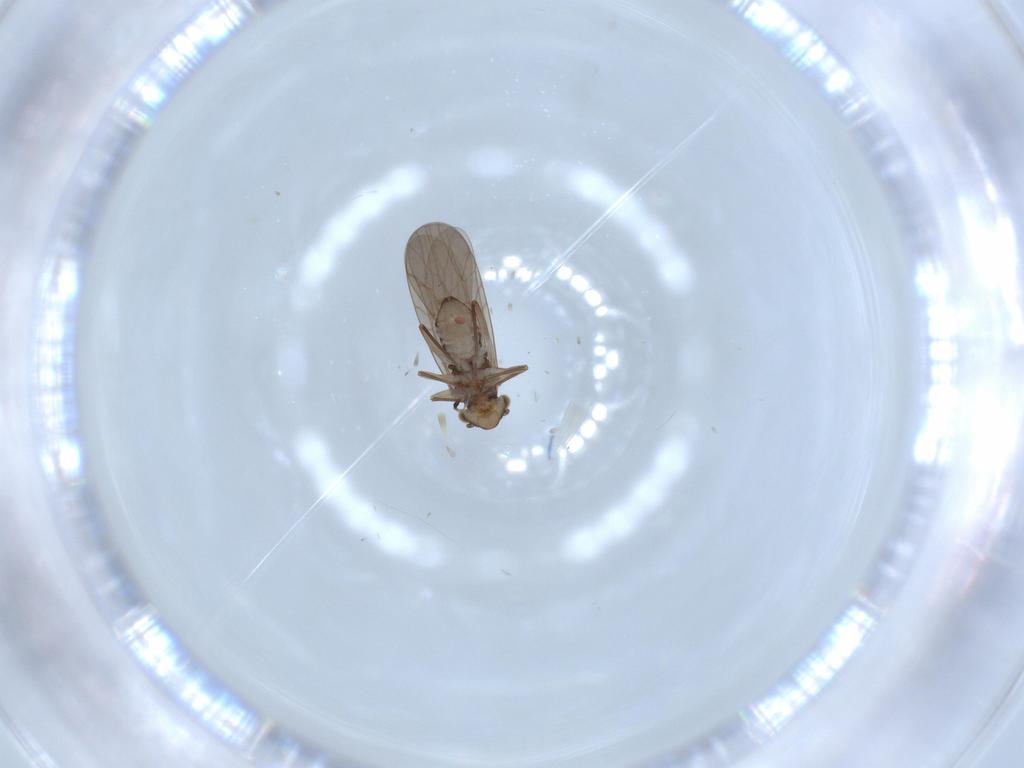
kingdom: Animalia
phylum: Arthropoda
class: Insecta
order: Psocodea
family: Lepidopsocidae
